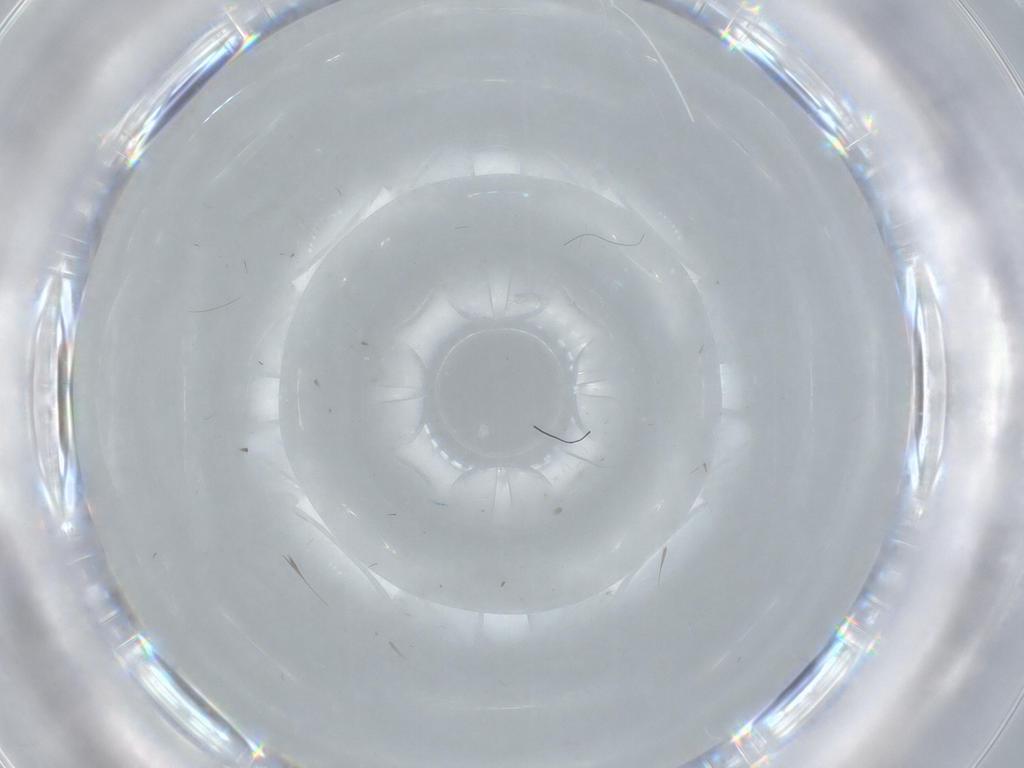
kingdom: Animalia
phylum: Arthropoda
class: Insecta
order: Diptera
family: Cecidomyiidae
